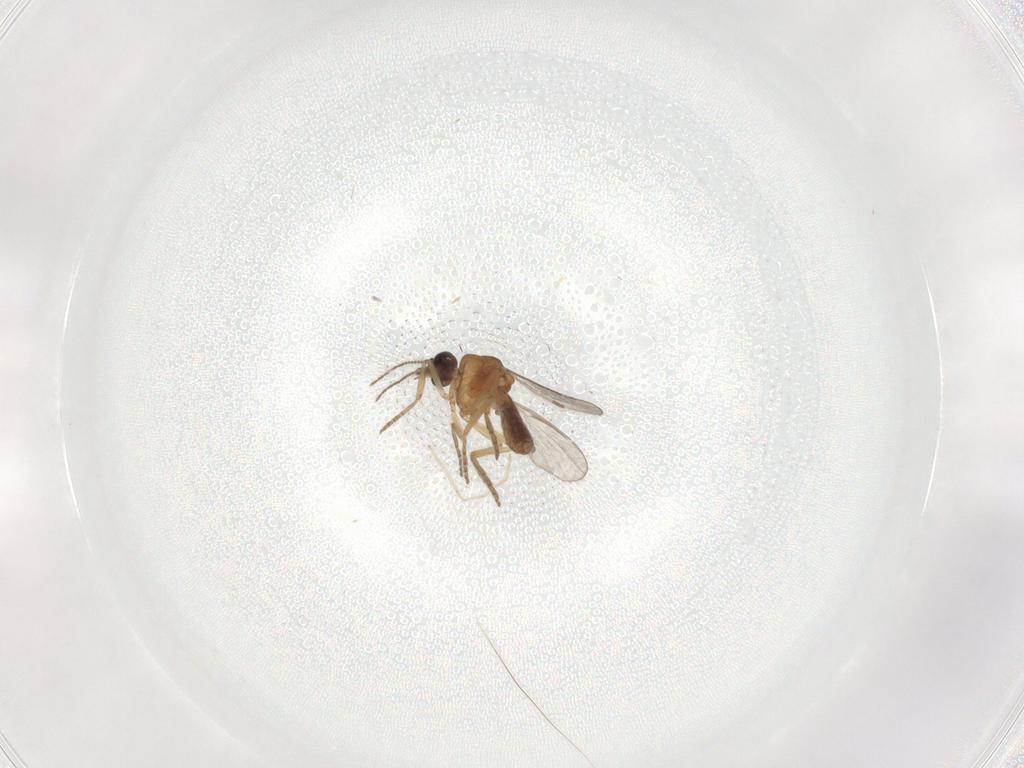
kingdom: Animalia
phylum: Arthropoda
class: Insecta
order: Diptera
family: Chironomidae
